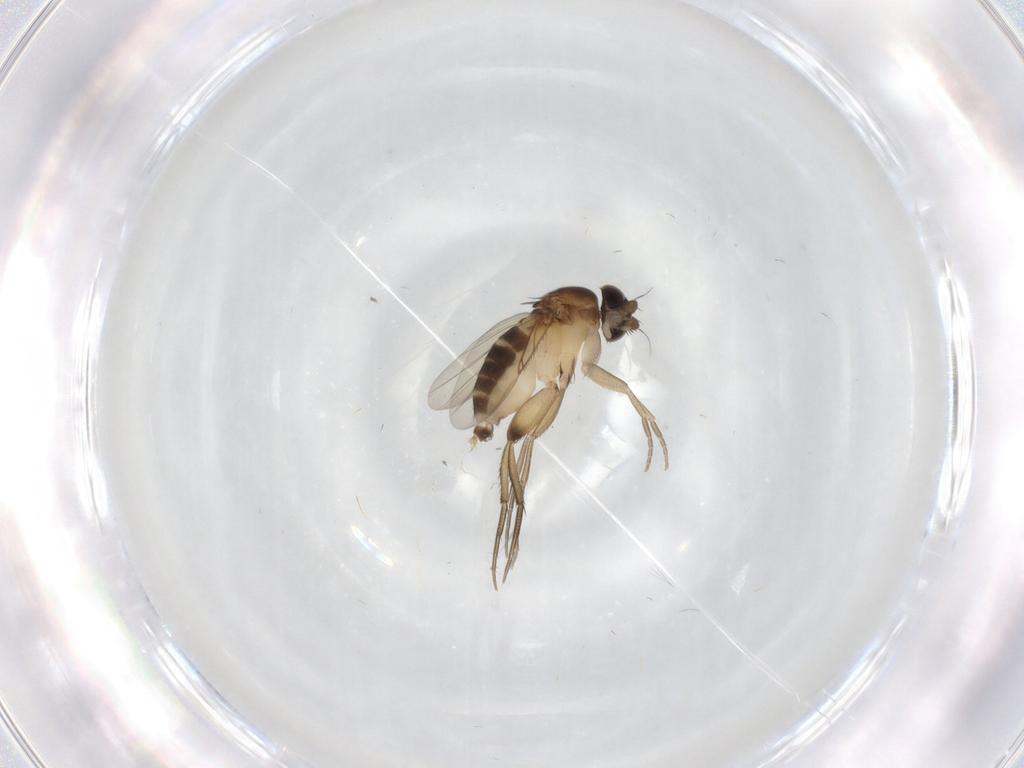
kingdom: Animalia
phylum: Arthropoda
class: Insecta
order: Diptera
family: Phoridae
